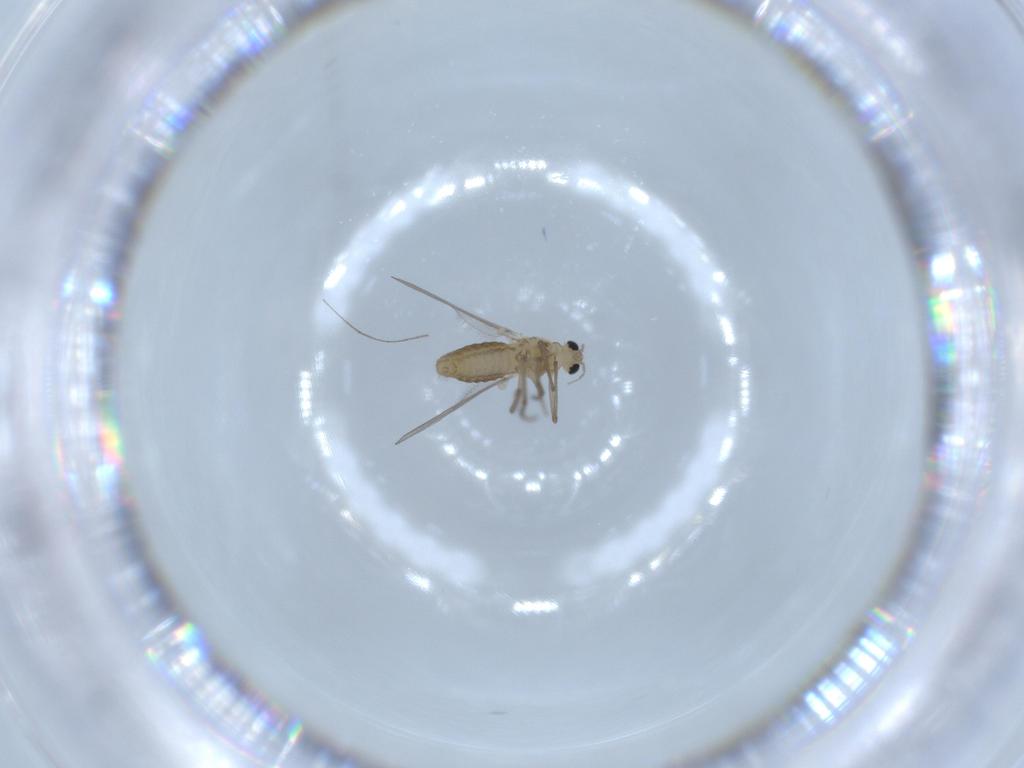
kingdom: Animalia
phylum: Arthropoda
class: Insecta
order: Diptera
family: Chironomidae
